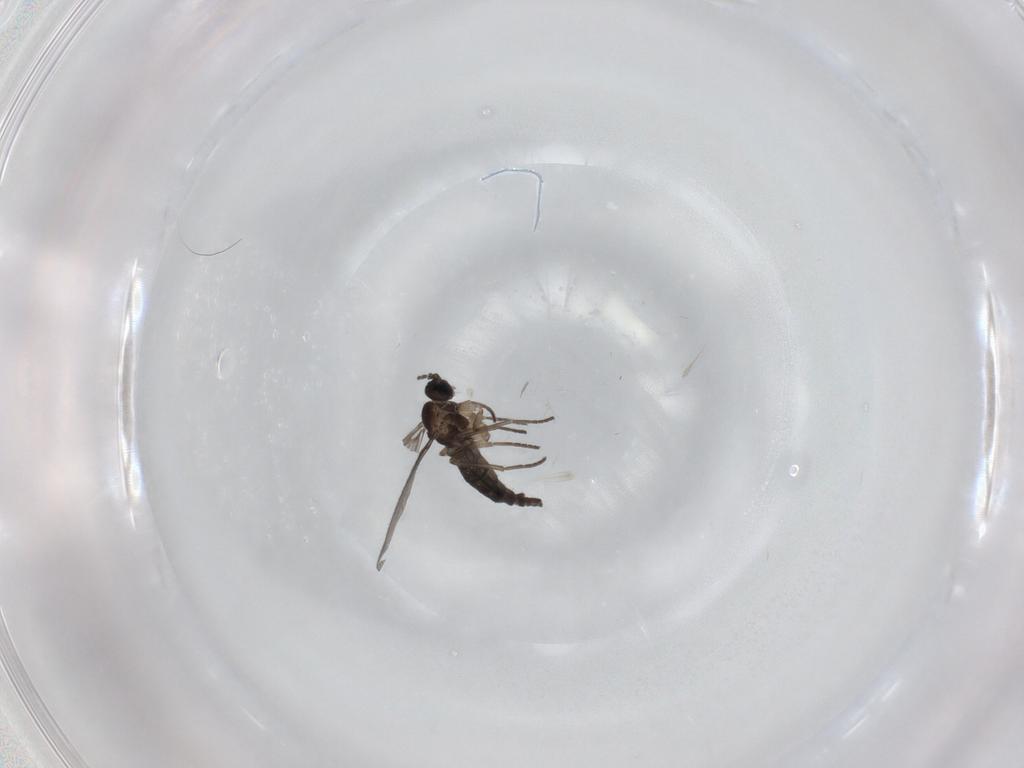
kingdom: Animalia
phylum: Arthropoda
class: Insecta
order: Diptera
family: Sciaridae
